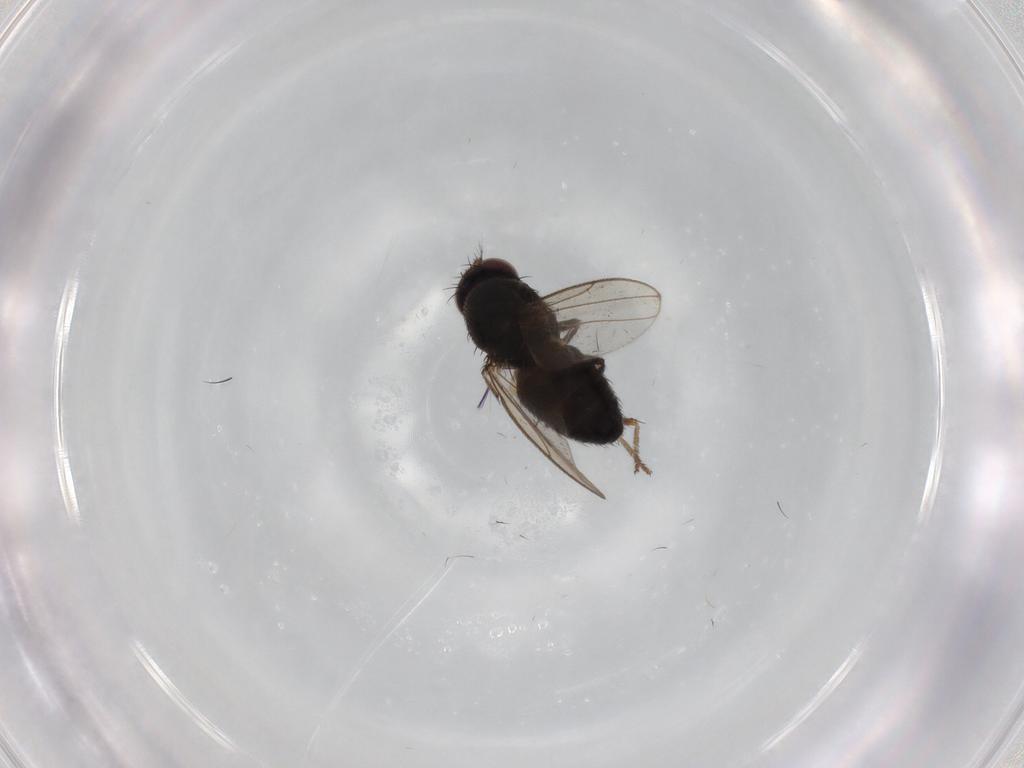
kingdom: Animalia
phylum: Arthropoda
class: Insecta
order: Diptera
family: Ephydridae
